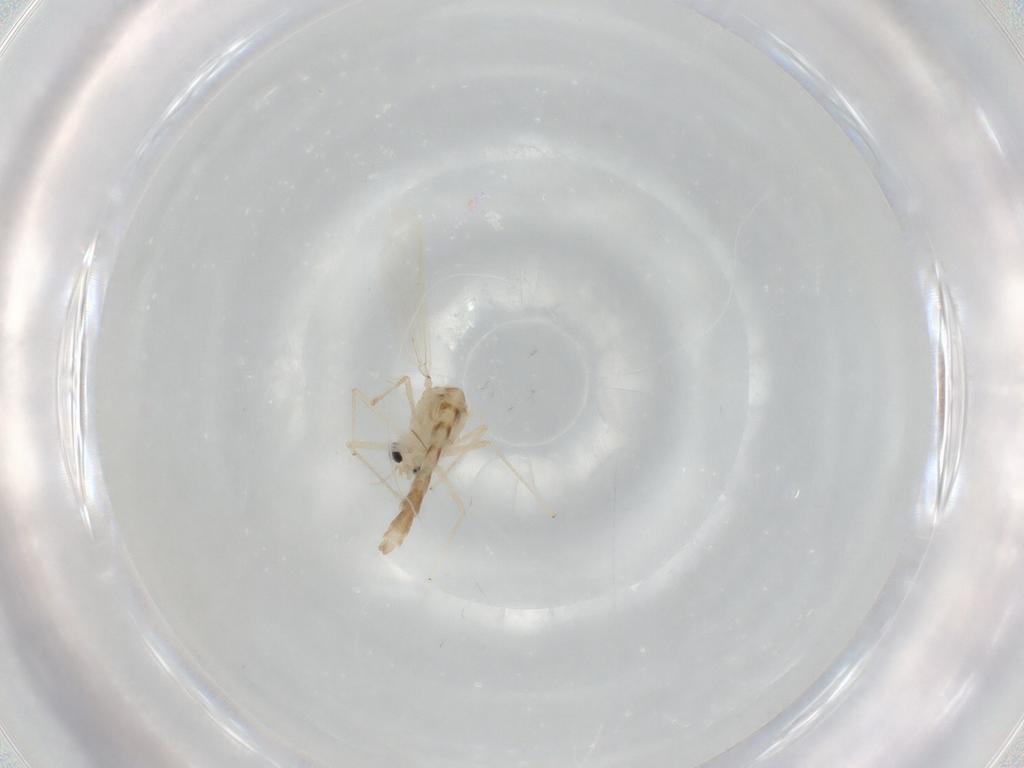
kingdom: Animalia
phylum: Arthropoda
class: Insecta
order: Diptera
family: Chironomidae
